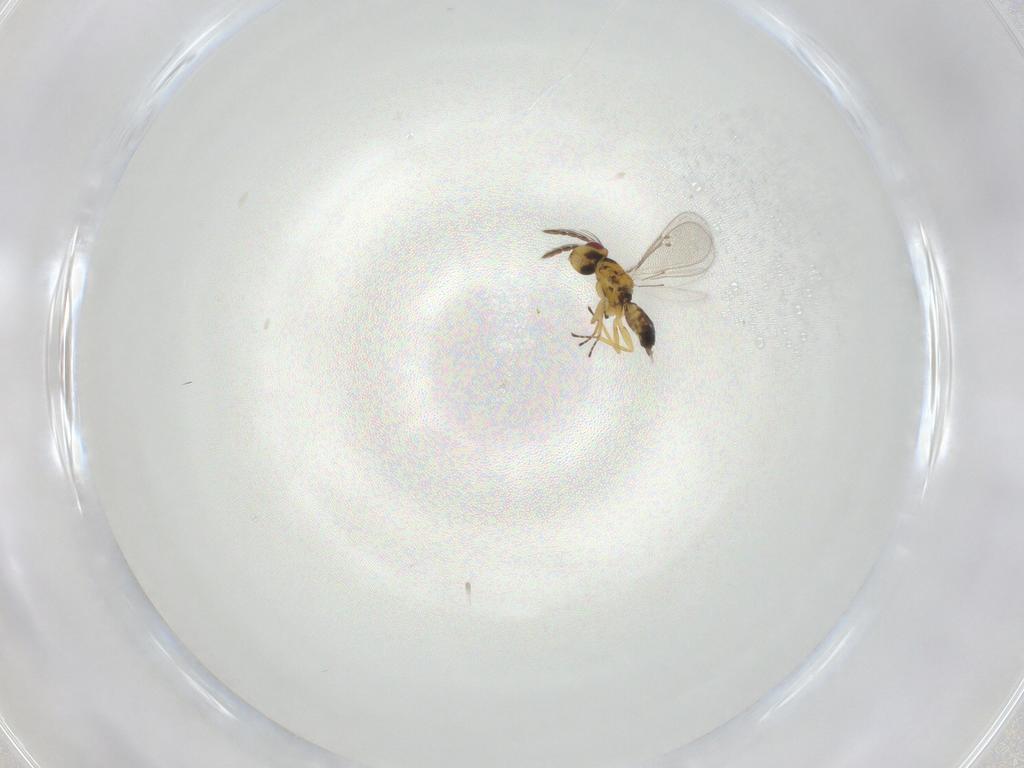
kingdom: Animalia
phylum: Arthropoda
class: Insecta
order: Hymenoptera
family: Eulophidae
